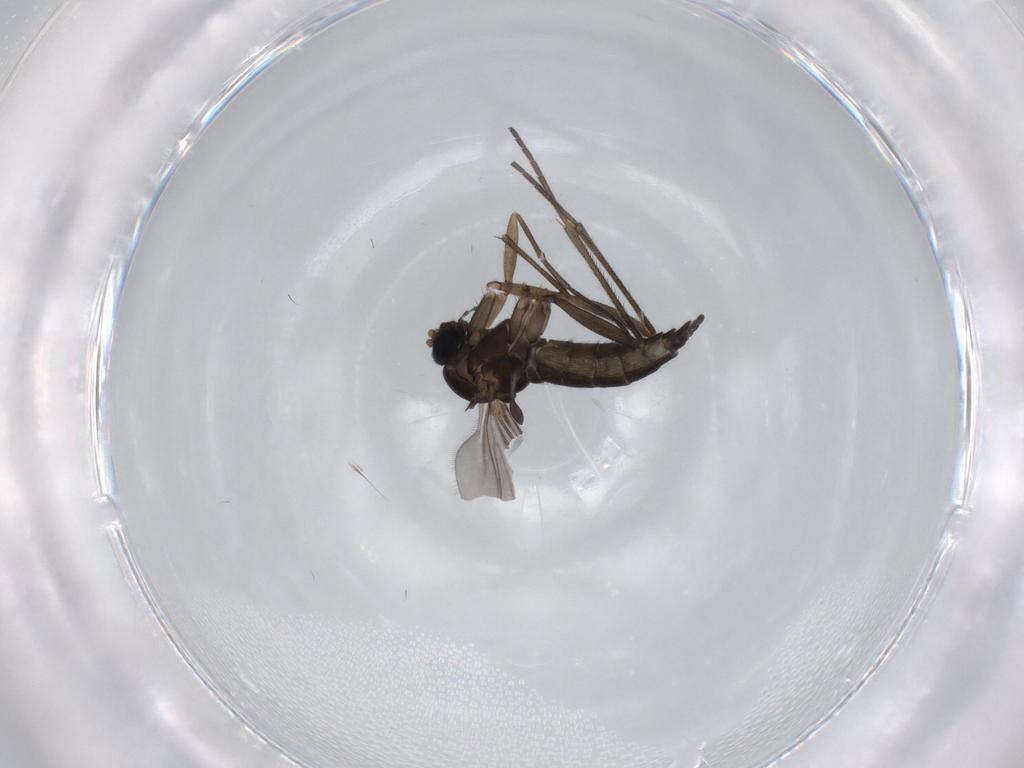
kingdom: Animalia
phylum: Arthropoda
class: Insecta
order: Diptera
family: Sciaridae
